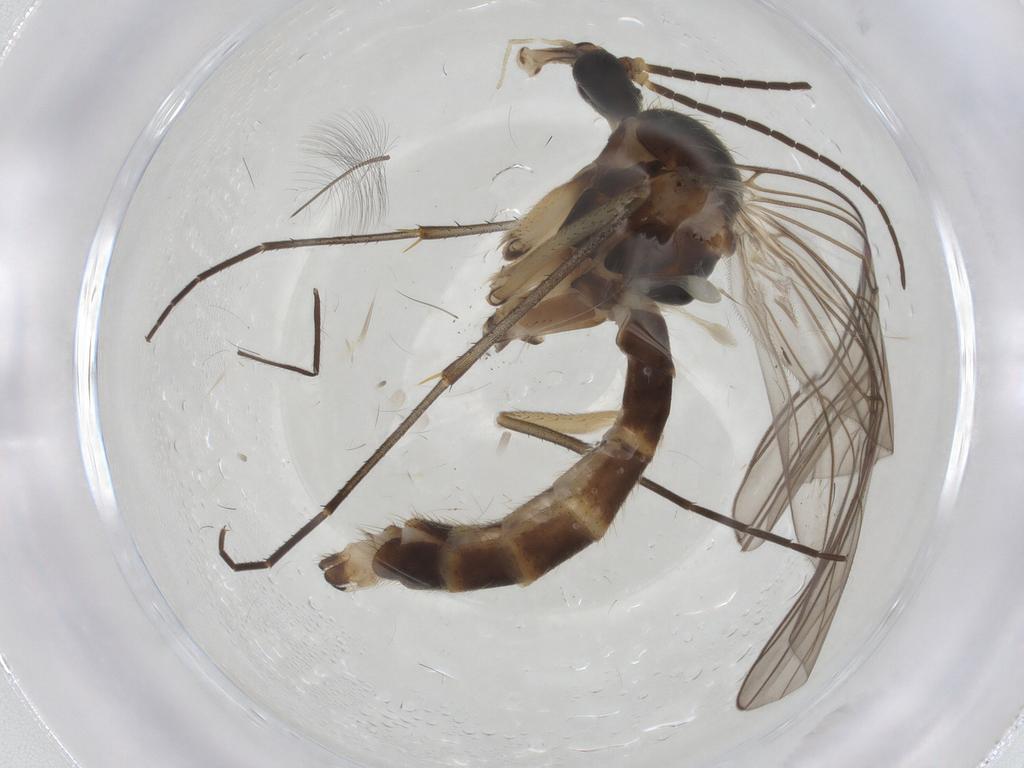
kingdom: Animalia
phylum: Arthropoda
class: Insecta
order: Diptera
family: Mycetophilidae
